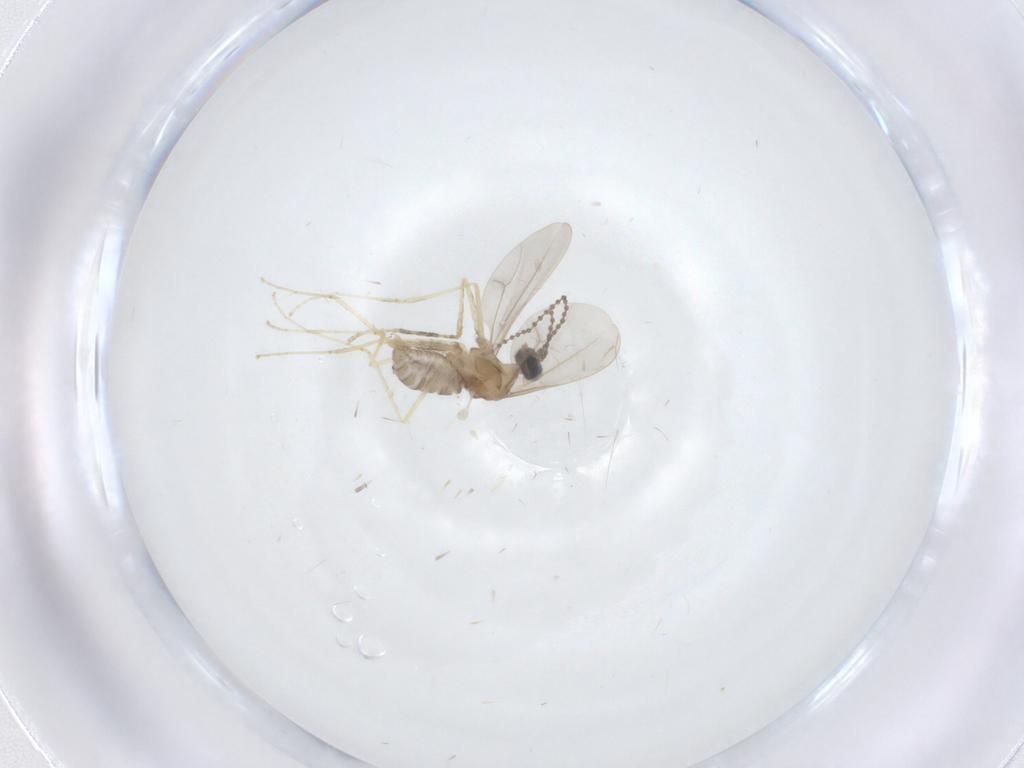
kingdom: Animalia
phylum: Arthropoda
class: Insecta
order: Diptera
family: Cecidomyiidae
